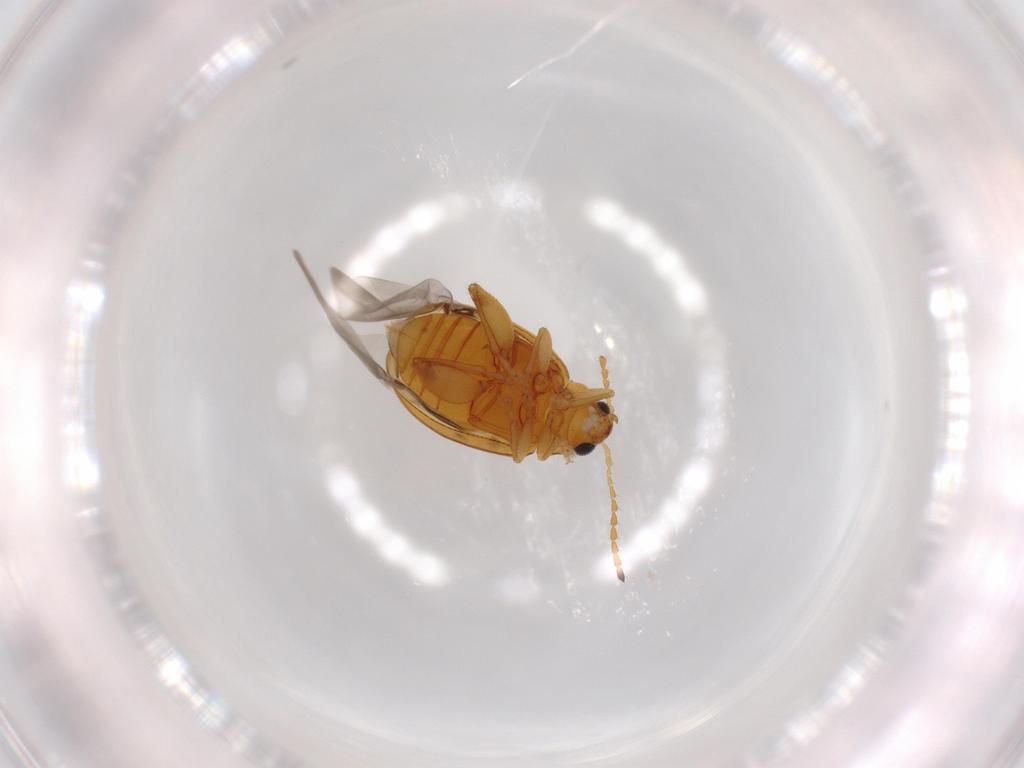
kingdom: Animalia
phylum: Arthropoda
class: Insecta
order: Coleoptera
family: Chrysomelidae
